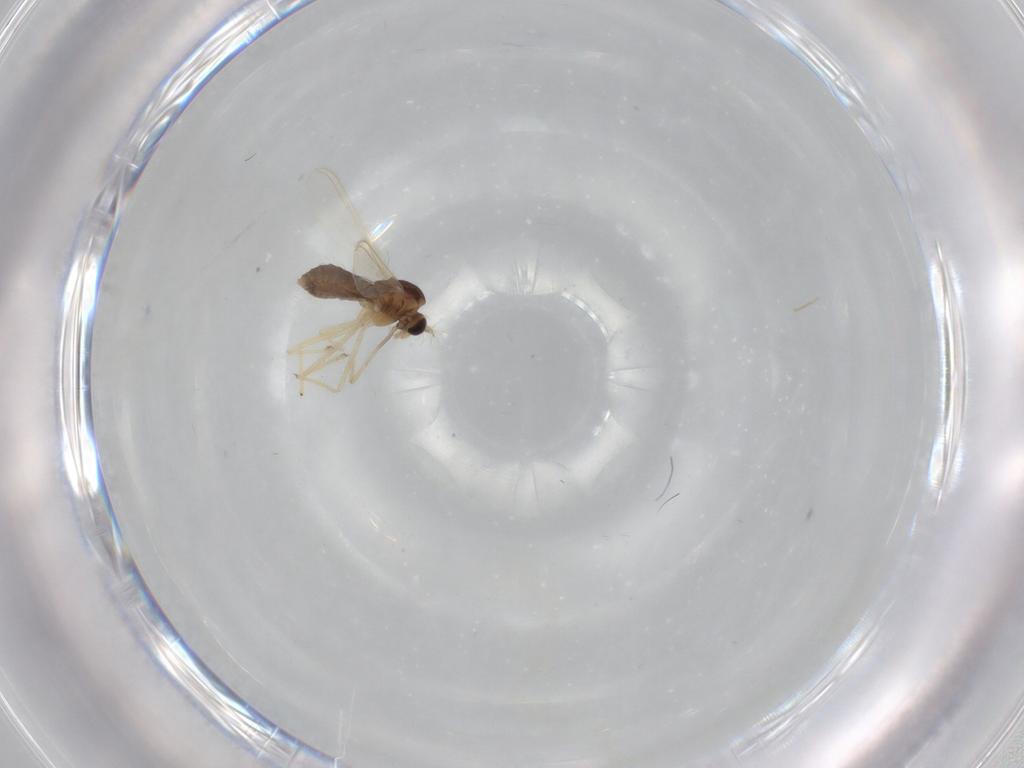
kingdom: Animalia
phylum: Arthropoda
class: Insecta
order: Diptera
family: Chironomidae
